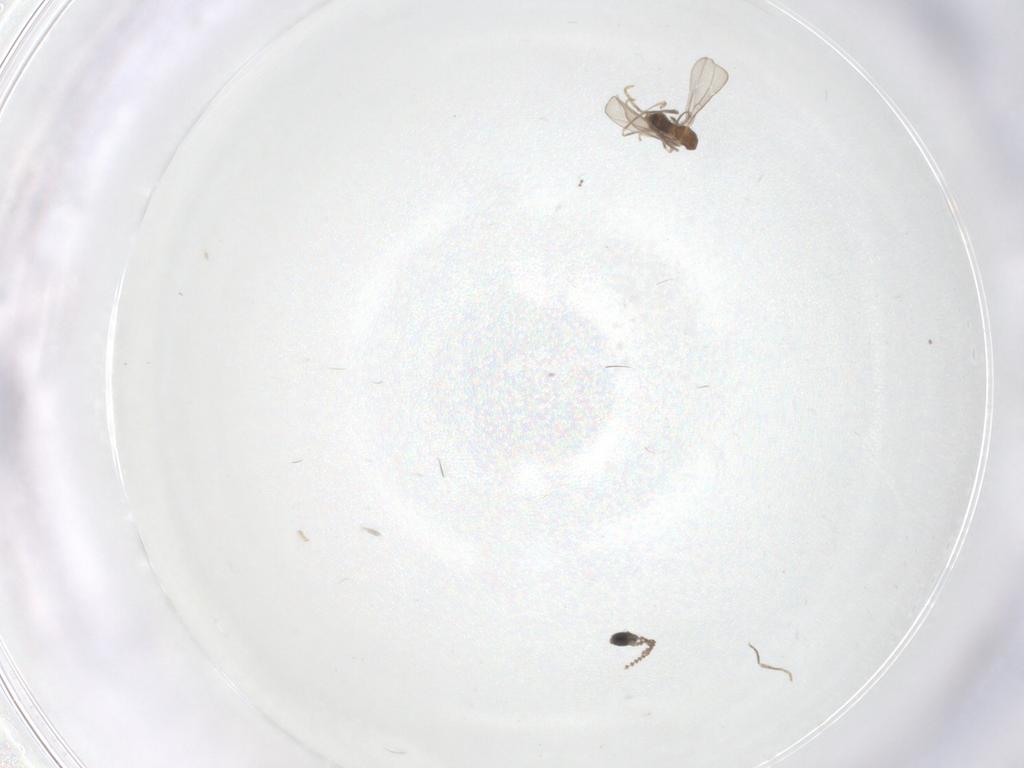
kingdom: Animalia
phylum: Arthropoda
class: Insecta
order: Diptera
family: Cecidomyiidae
